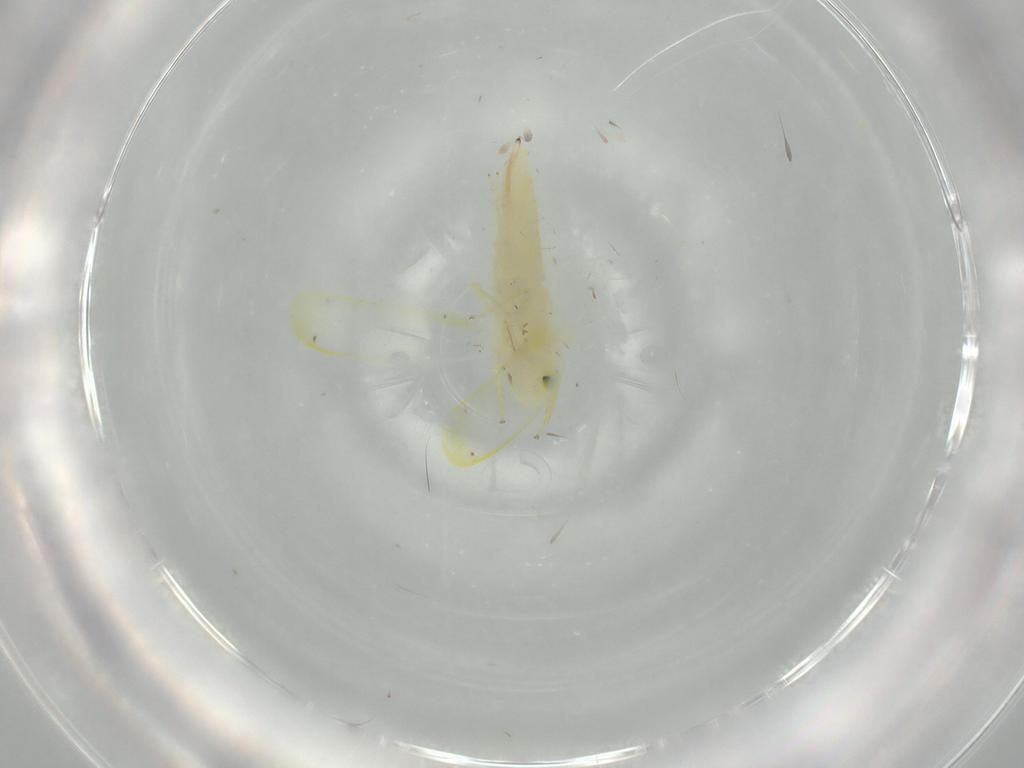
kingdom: Animalia
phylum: Arthropoda
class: Insecta
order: Hemiptera
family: Cicadellidae
